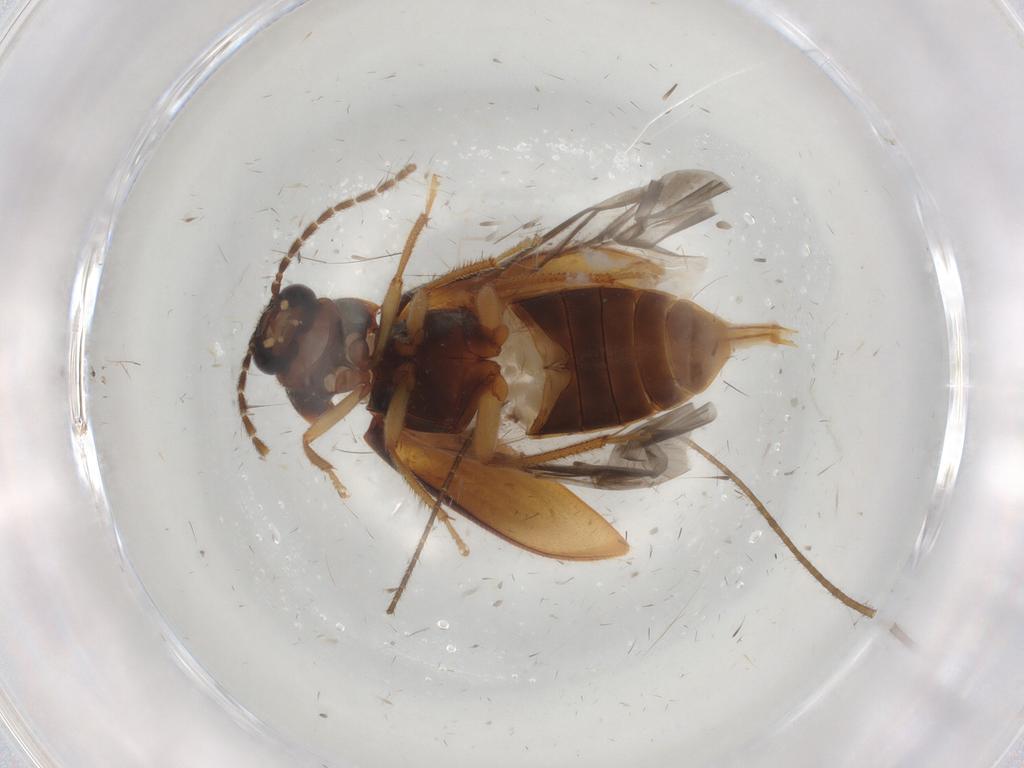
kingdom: Animalia
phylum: Arthropoda
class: Insecta
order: Coleoptera
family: Ptilodactylidae
